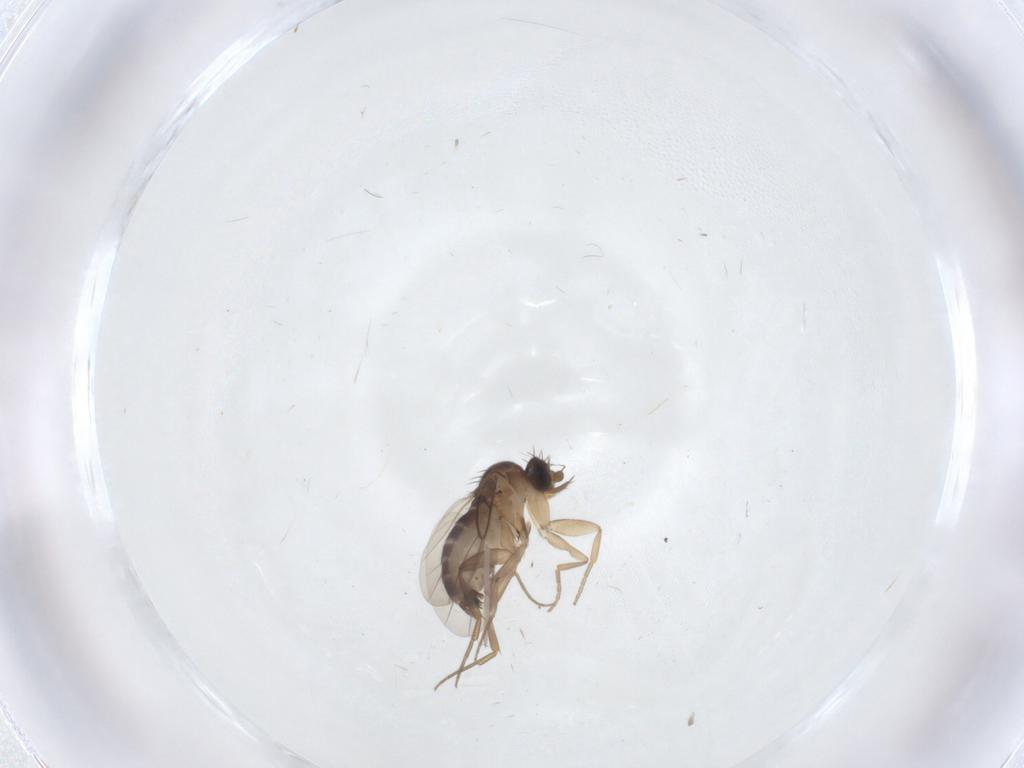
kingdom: Animalia
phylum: Arthropoda
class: Insecta
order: Diptera
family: Phoridae
